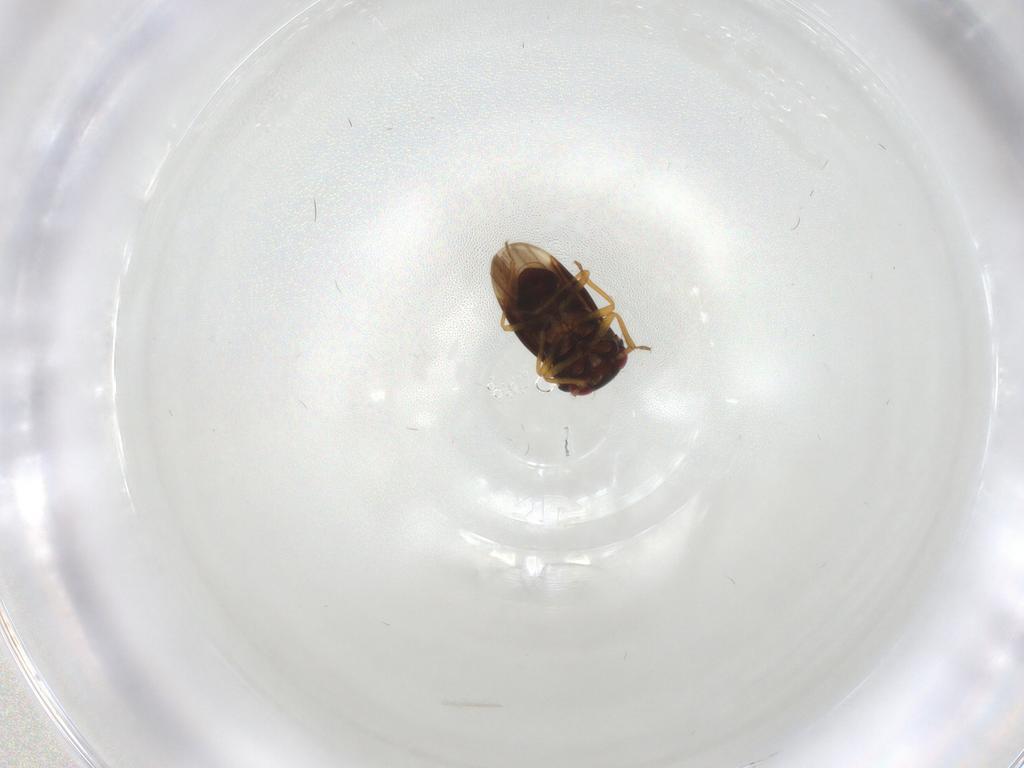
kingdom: Animalia
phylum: Arthropoda
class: Insecta
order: Hemiptera
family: Schizopteridae
